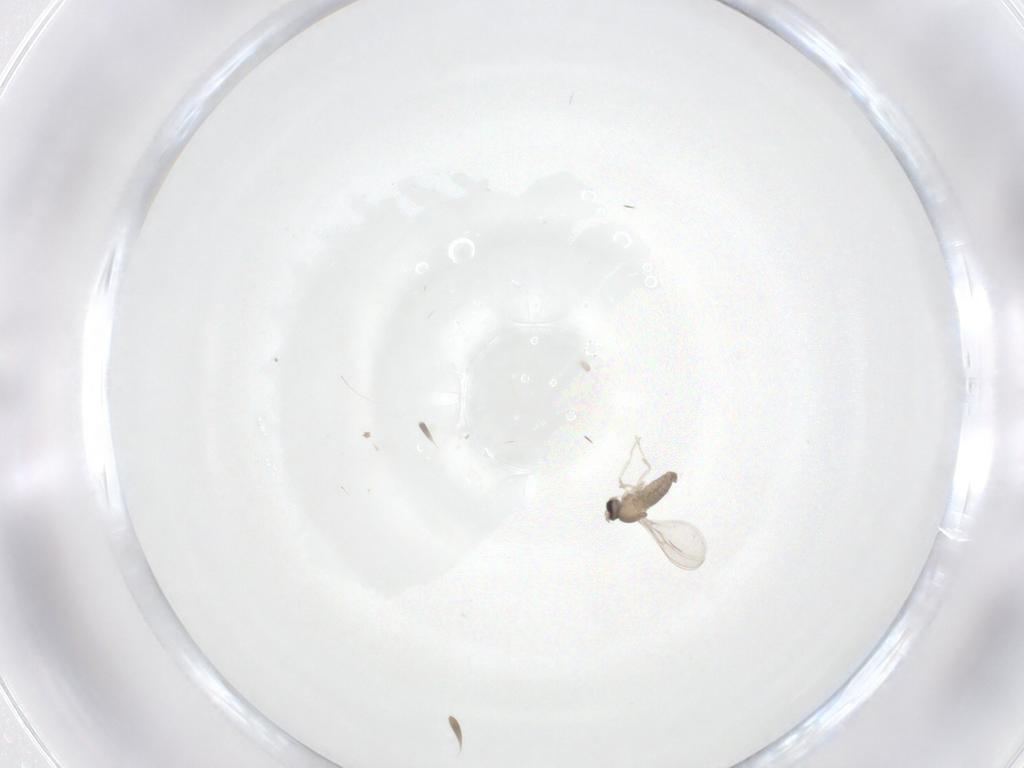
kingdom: Animalia
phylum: Arthropoda
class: Insecta
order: Diptera
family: Cecidomyiidae
